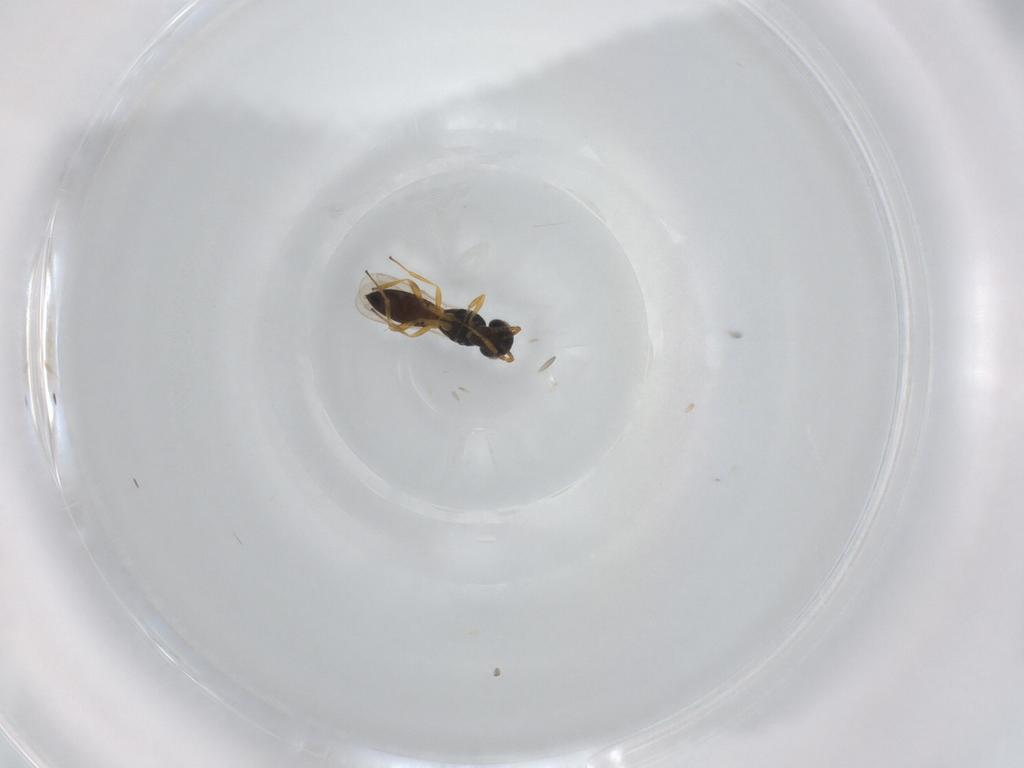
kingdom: Animalia
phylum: Arthropoda
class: Insecta
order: Hymenoptera
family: Scelionidae
